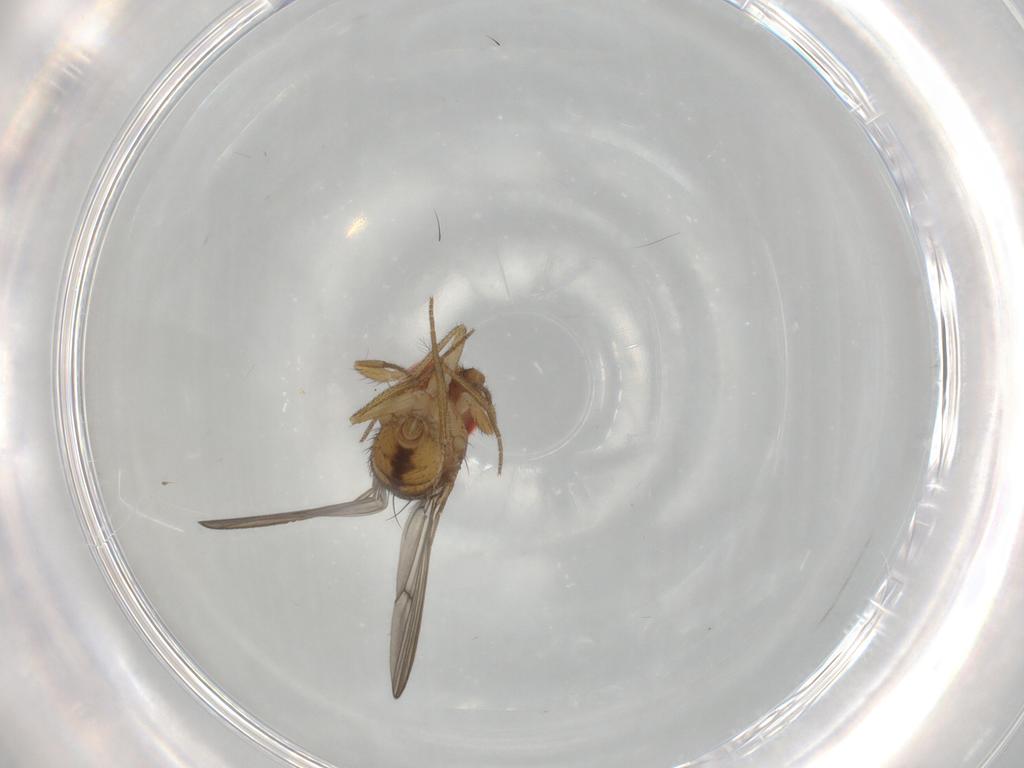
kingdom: Animalia
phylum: Arthropoda
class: Insecta
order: Diptera
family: Drosophilidae
